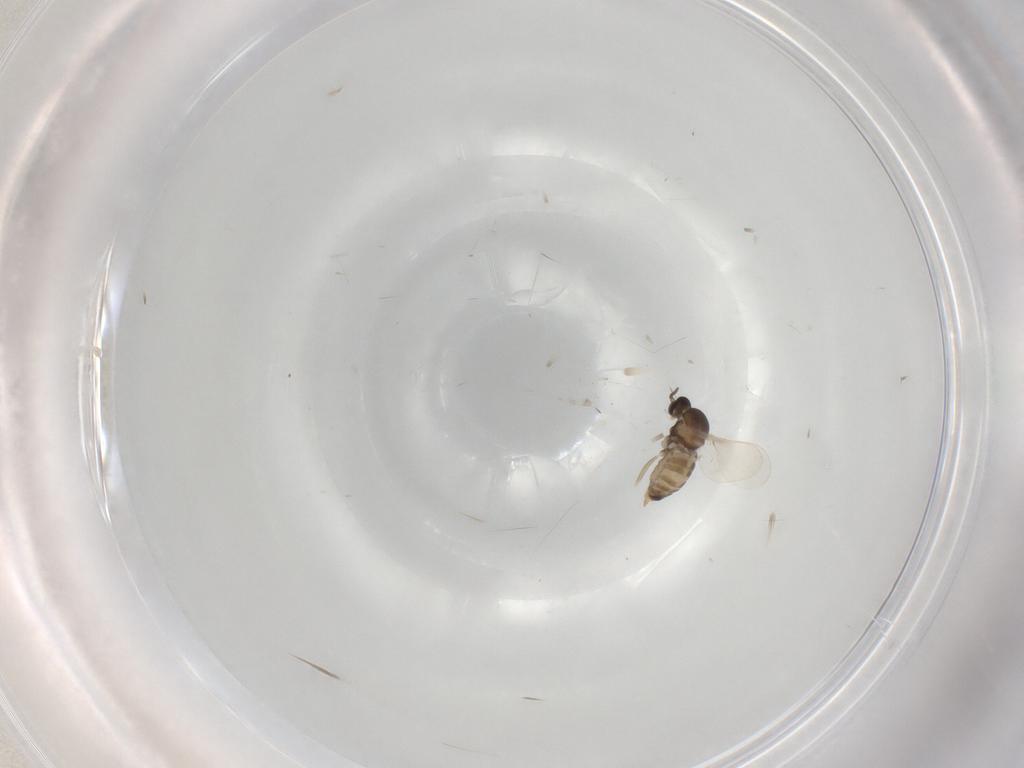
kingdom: Animalia
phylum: Arthropoda
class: Insecta
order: Diptera
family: Cecidomyiidae
